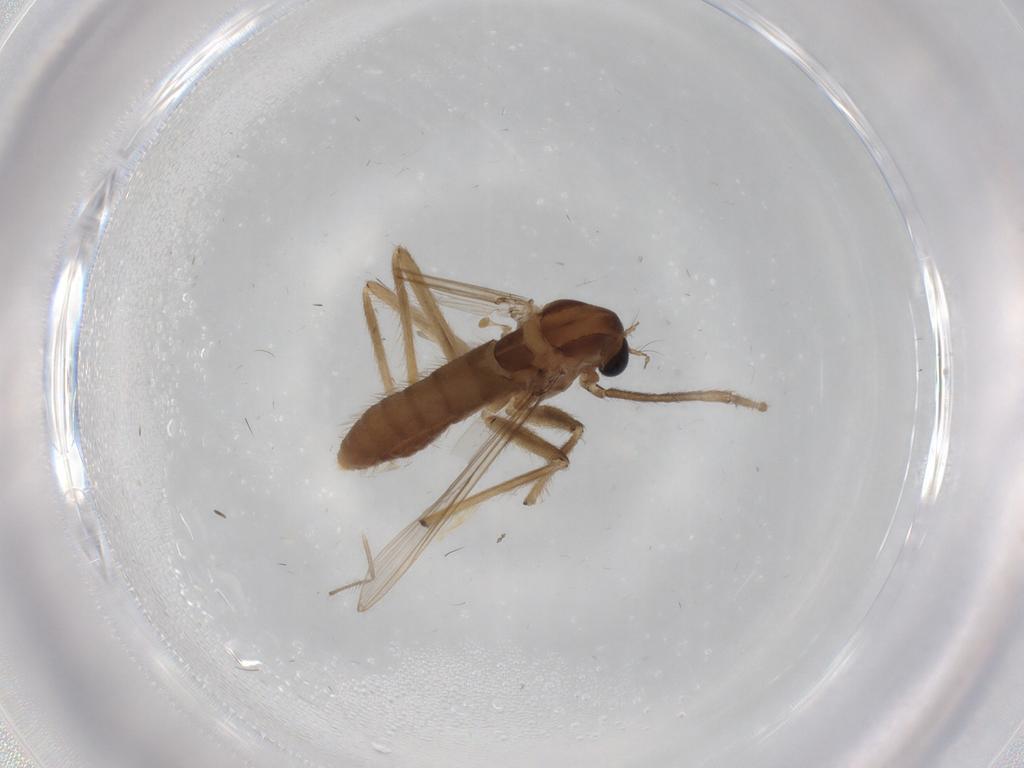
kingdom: Animalia
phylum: Arthropoda
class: Insecta
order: Diptera
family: Chironomidae
